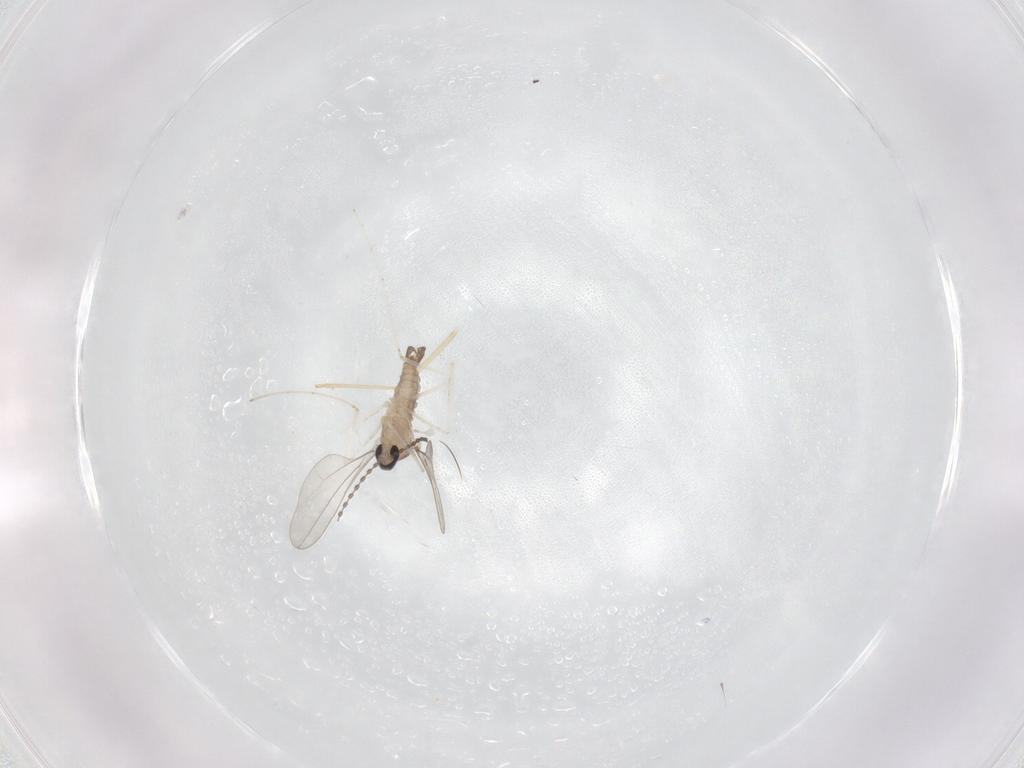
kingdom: Animalia
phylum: Arthropoda
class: Insecta
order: Diptera
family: Cecidomyiidae
